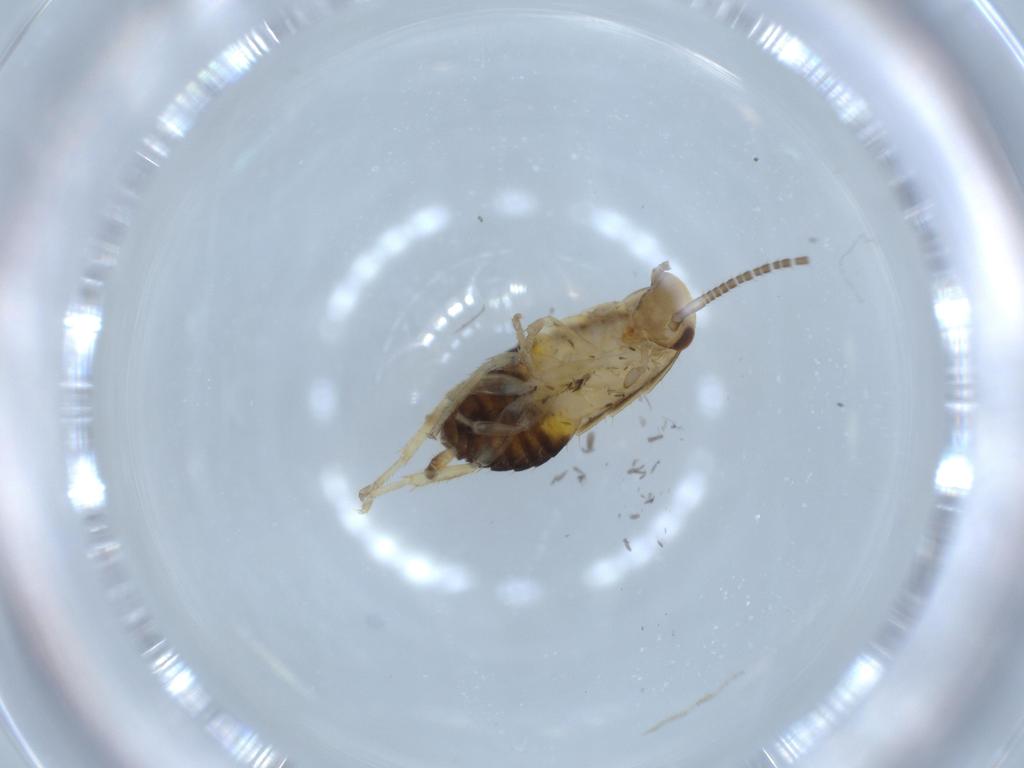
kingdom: Animalia
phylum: Arthropoda
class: Insecta
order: Blattodea
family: Ectobiidae
